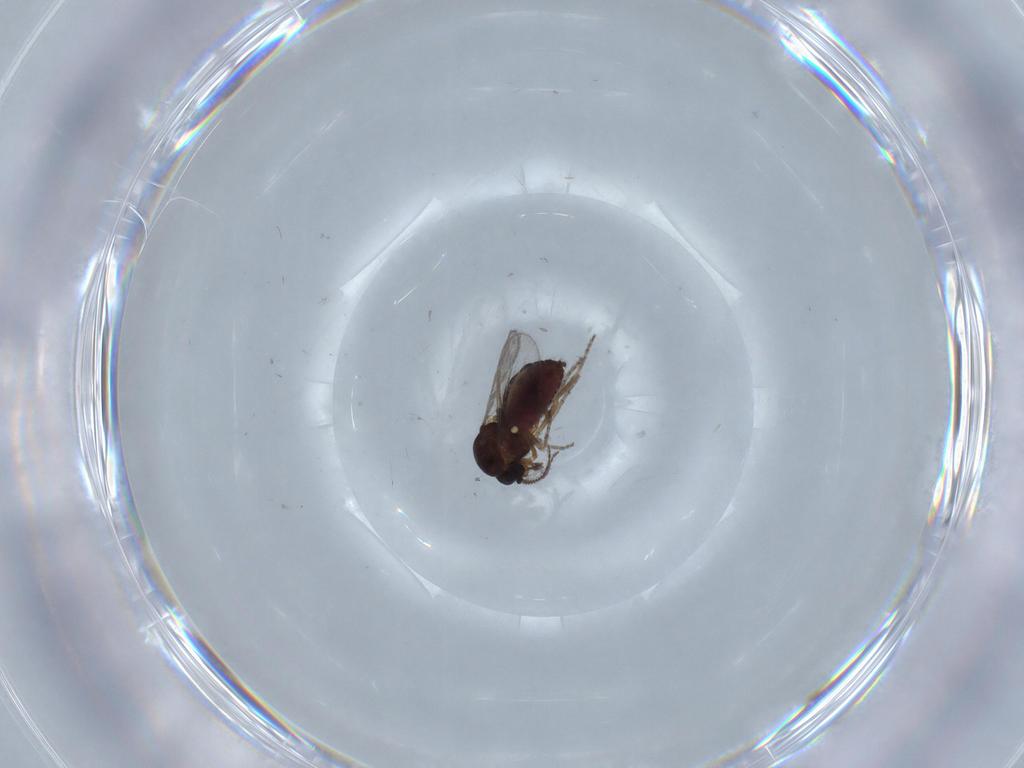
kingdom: Animalia
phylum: Arthropoda
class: Insecta
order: Diptera
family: Ceratopogonidae
